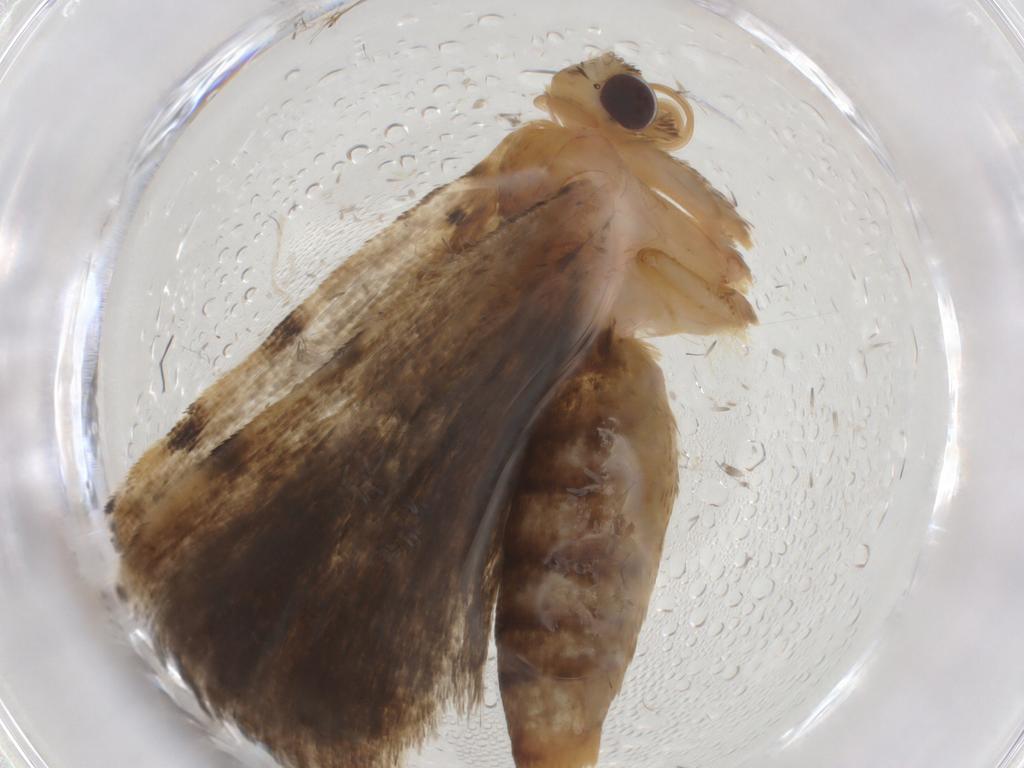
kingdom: Animalia
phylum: Arthropoda
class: Insecta
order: Lepidoptera
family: Erebidae
